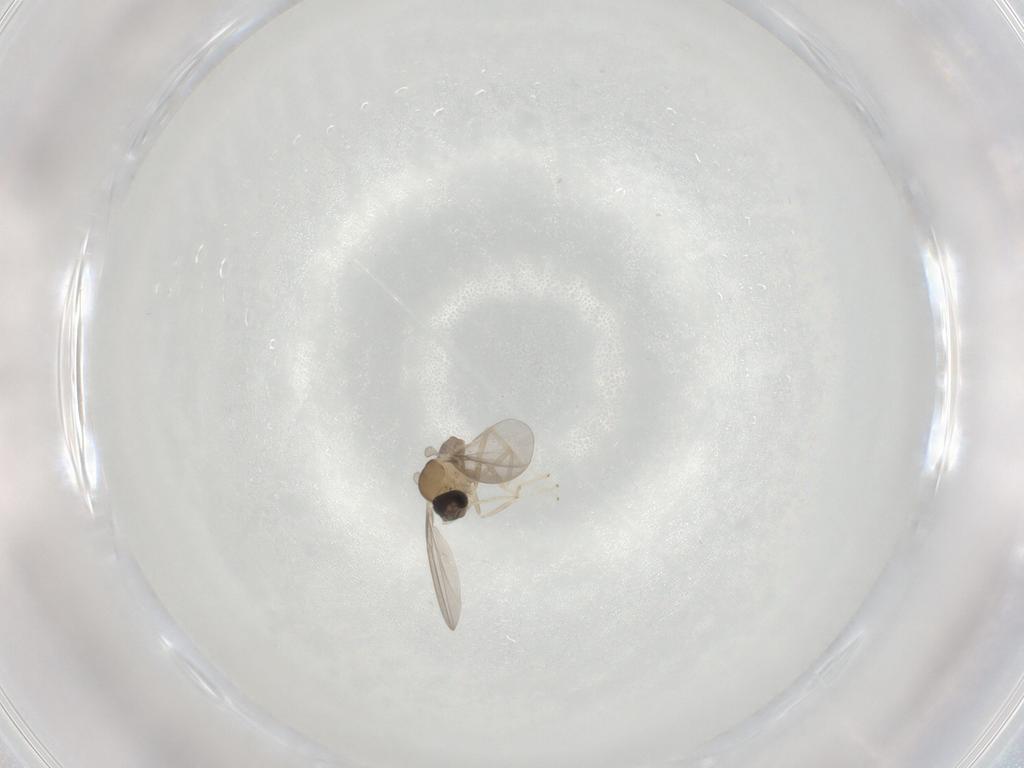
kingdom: Animalia
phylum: Arthropoda
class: Insecta
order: Diptera
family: Cecidomyiidae
